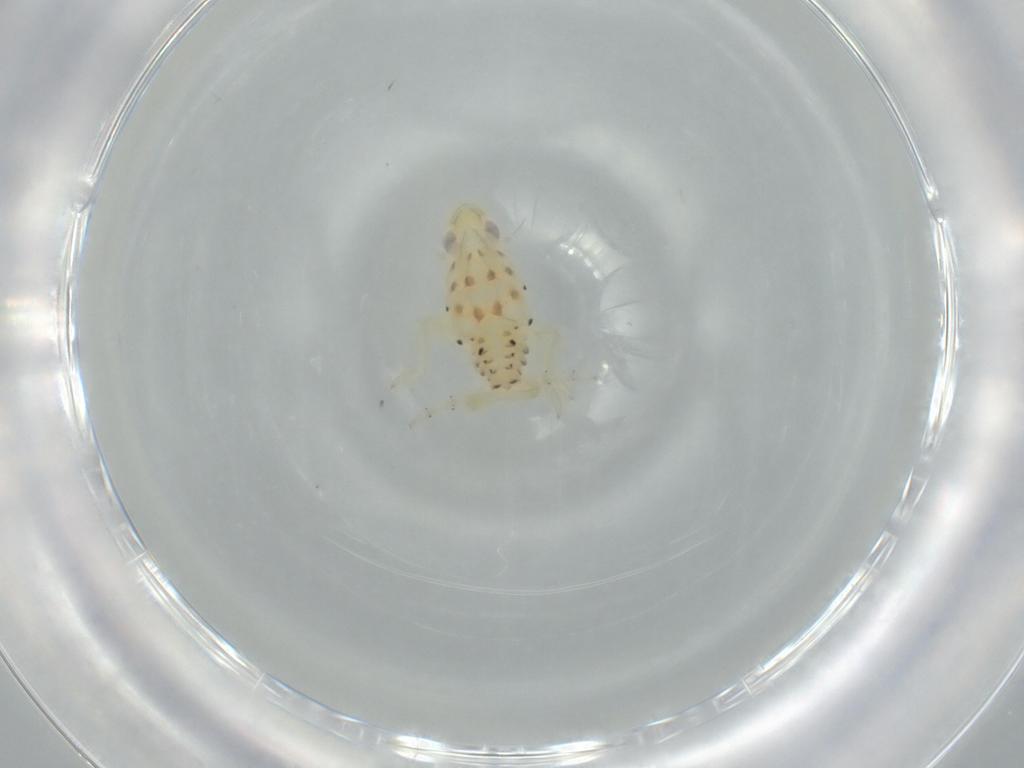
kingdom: Animalia
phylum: Arthropoda
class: Insecta
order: Hemiptera
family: Tropiduchidae
